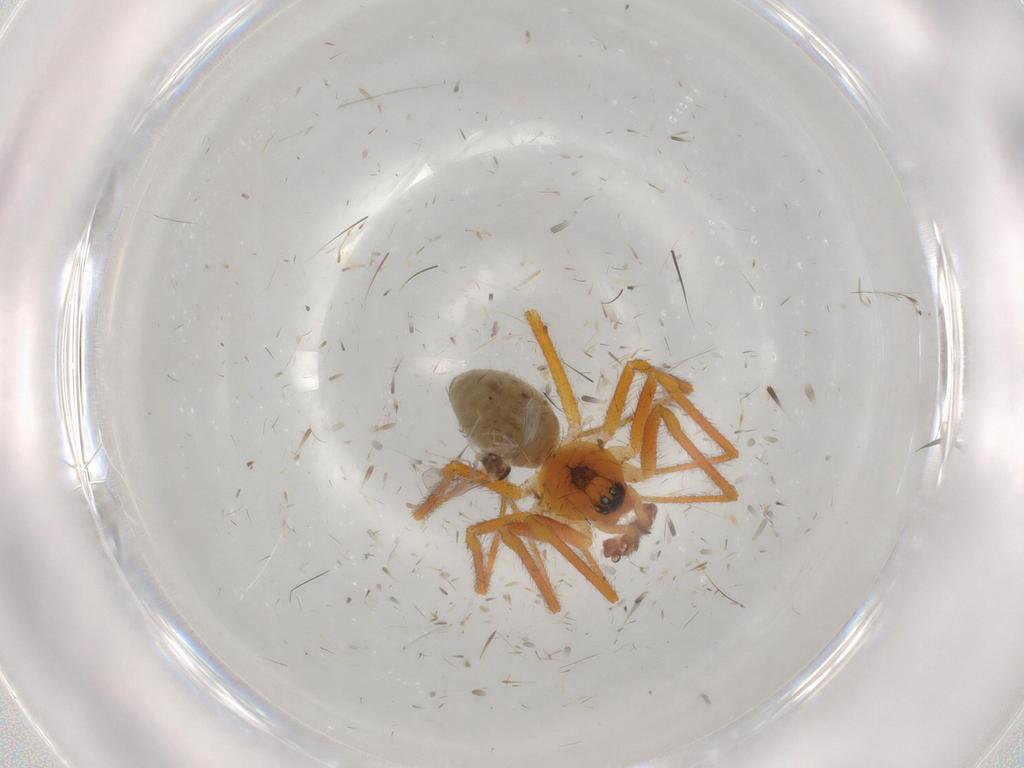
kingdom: Animalia
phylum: Arthropoda
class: Arachnida
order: Araneae
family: Linyphiidae
